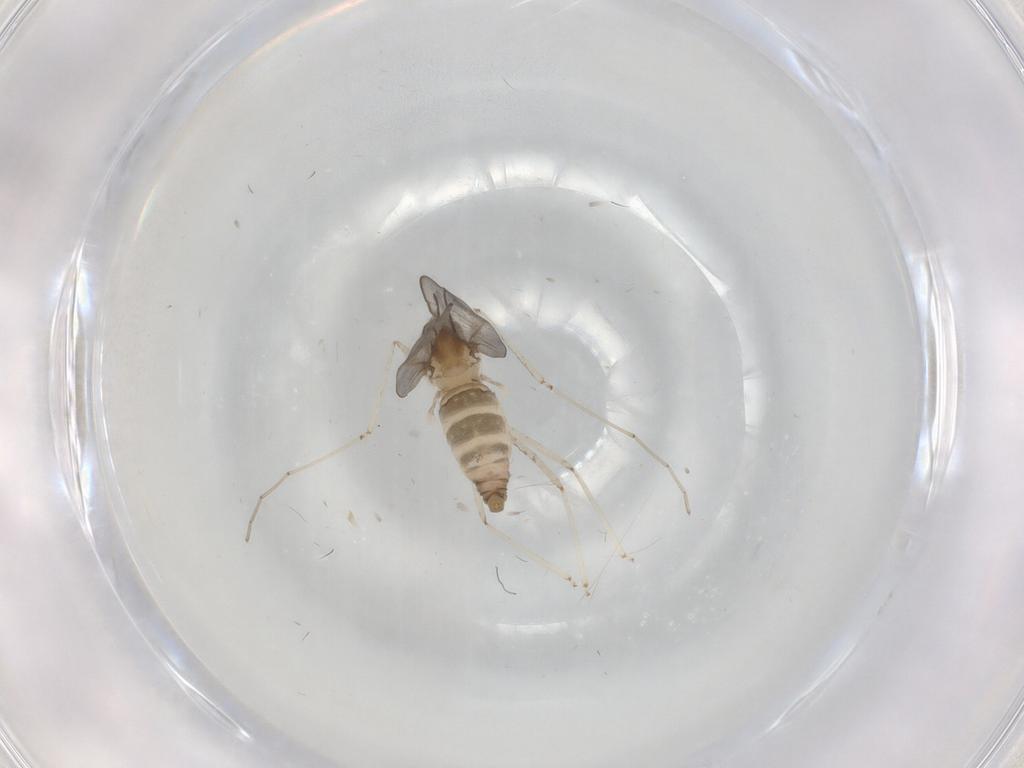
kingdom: Animalia
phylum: Arthropoda
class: Insecta
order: Diptera
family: Cecidomyiidae
